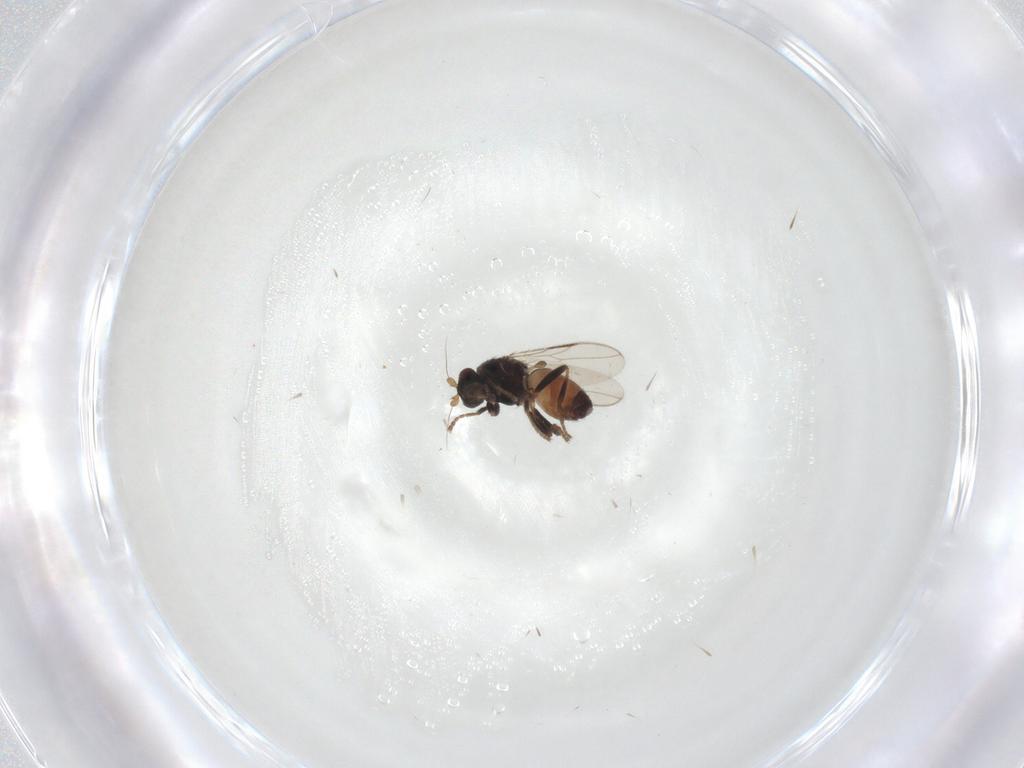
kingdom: Animalia
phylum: Arthropoda
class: Insecta
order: Diptera
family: Sphaeroceridae
